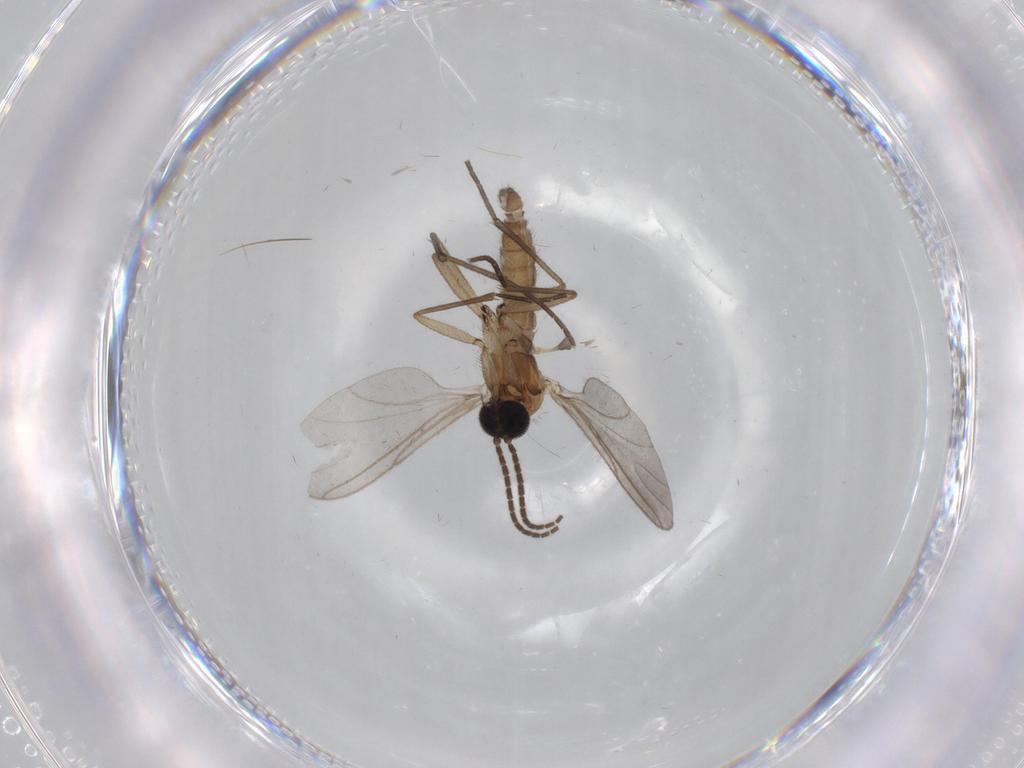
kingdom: Animalia
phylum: Arthropoda
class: Insecta
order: Diptera
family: Sciaridae
